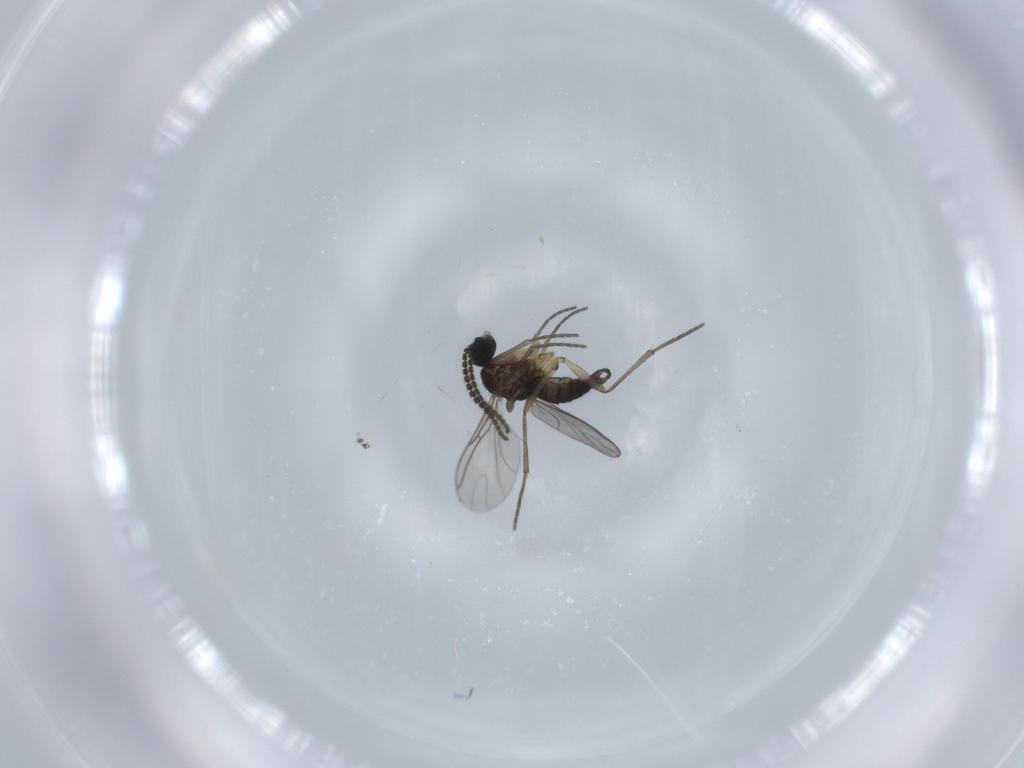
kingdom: Animalia
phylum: Arthropoda
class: Insecta
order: Diptera
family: Sciaridae
